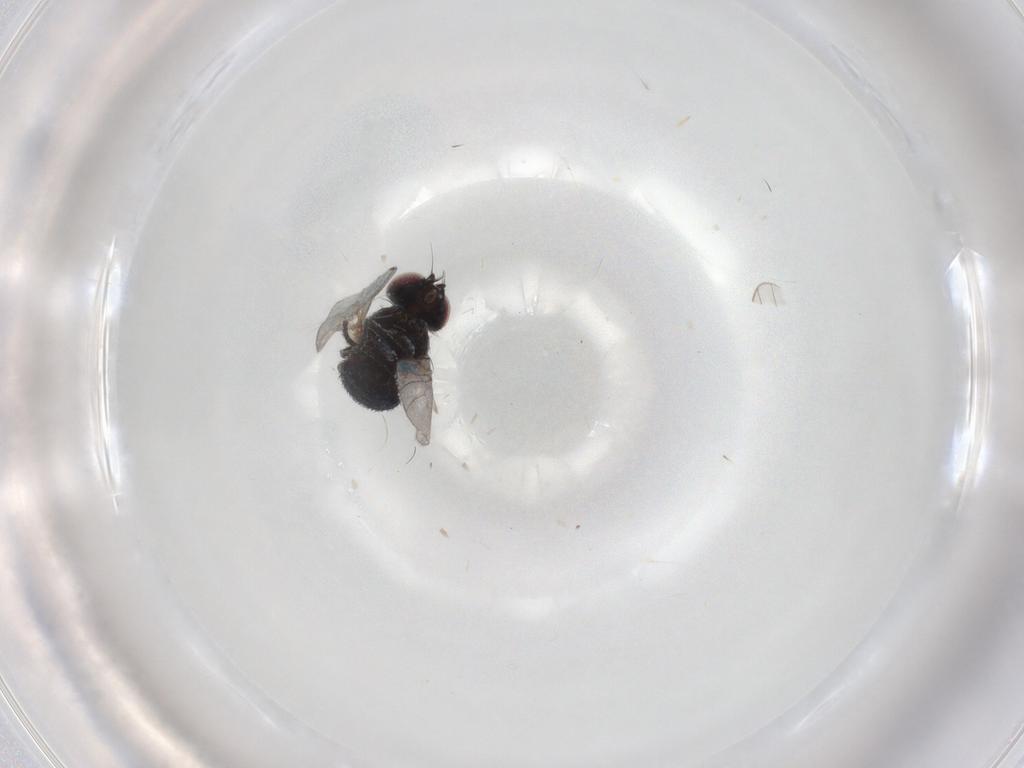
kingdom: Animalia
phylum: Arthropoda
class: Insecta
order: Diptera
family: Agromyzidae
